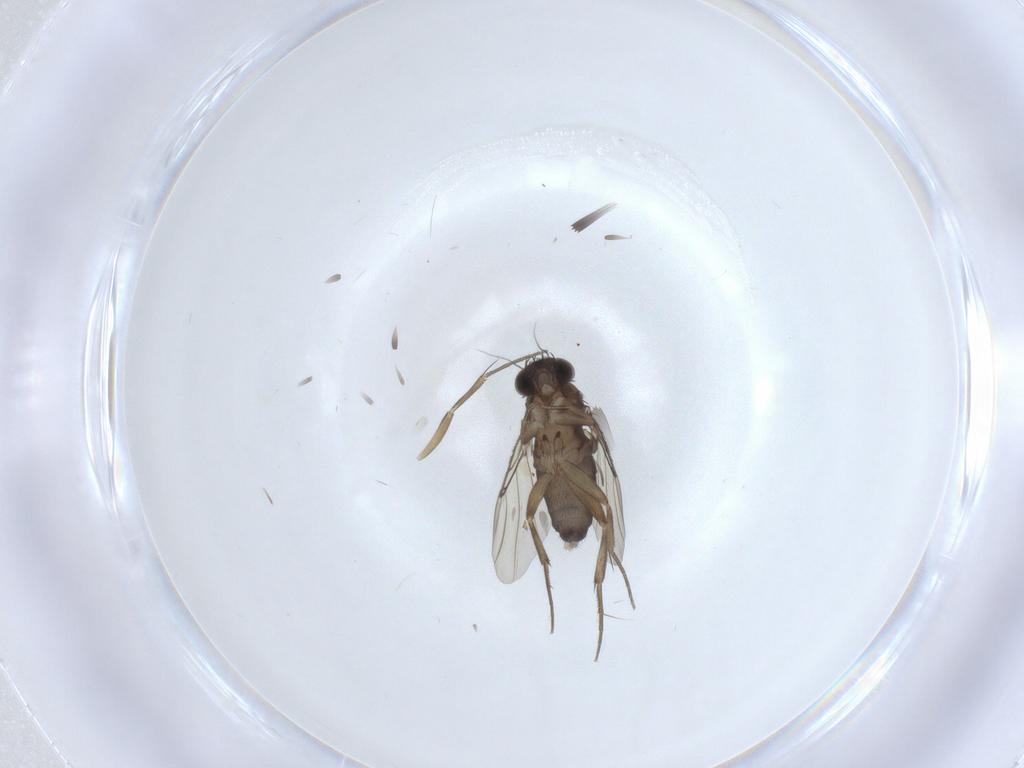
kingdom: Animalia
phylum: Arthropoda
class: Insecta
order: Diptera
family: Phoridae
